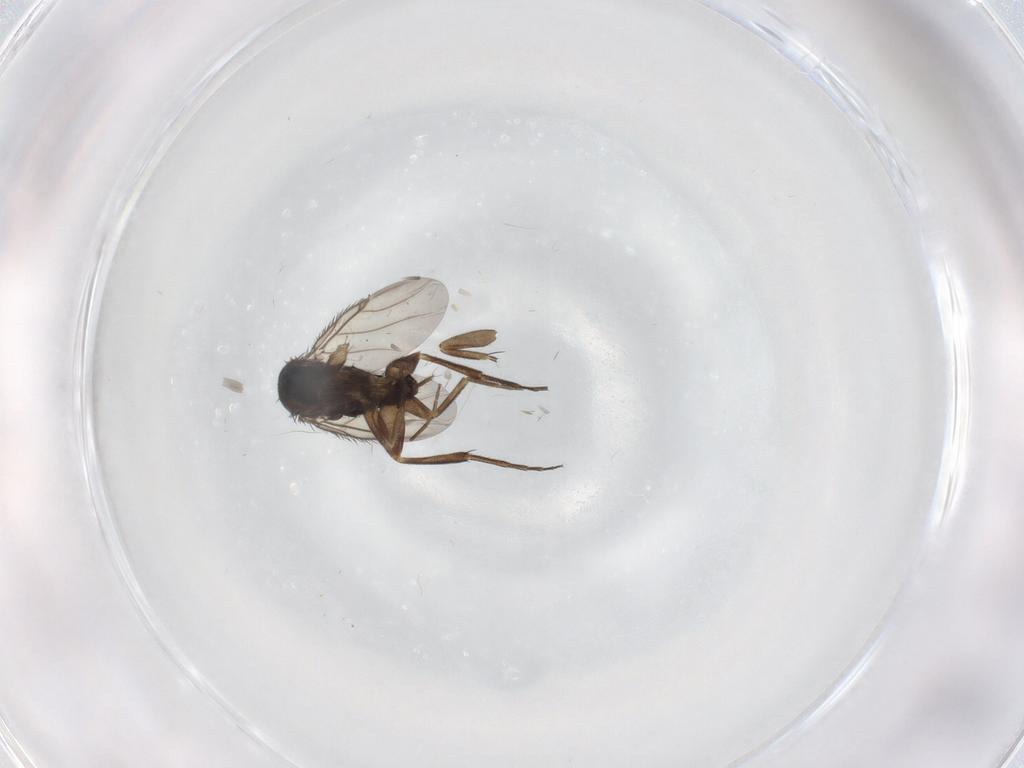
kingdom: Animalia
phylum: Arthropoda
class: Insecta
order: Diptera
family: Phoridae
